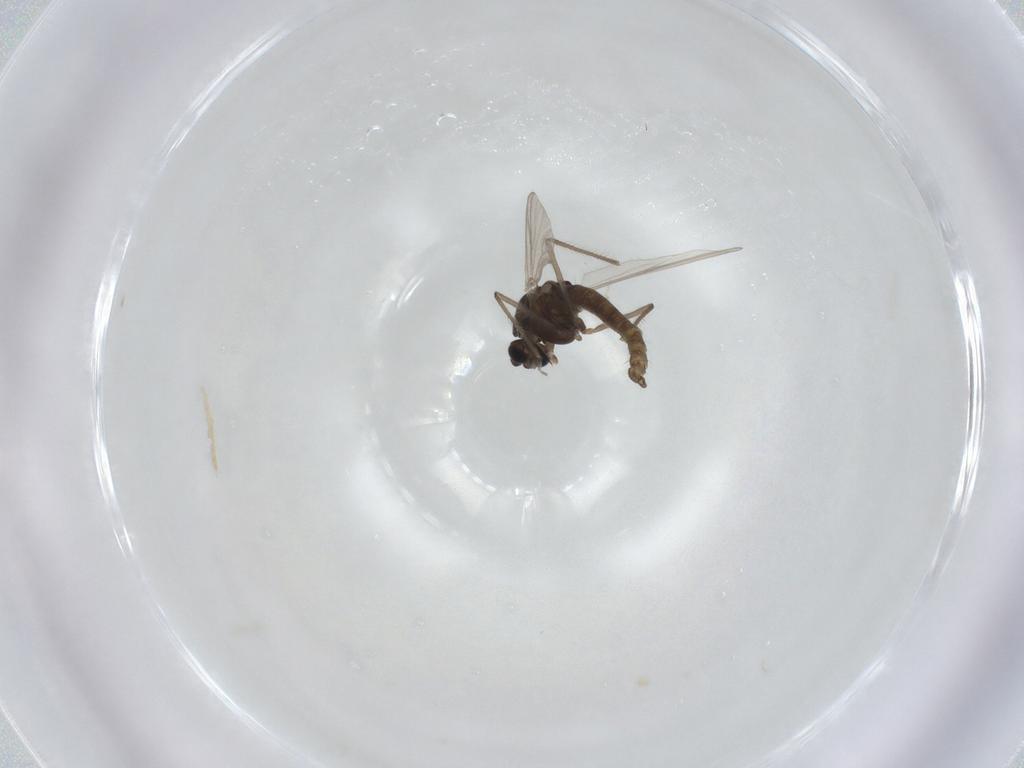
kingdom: Animalia
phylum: Arthropoda
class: Insecta
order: Diptera
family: Hybotidae
